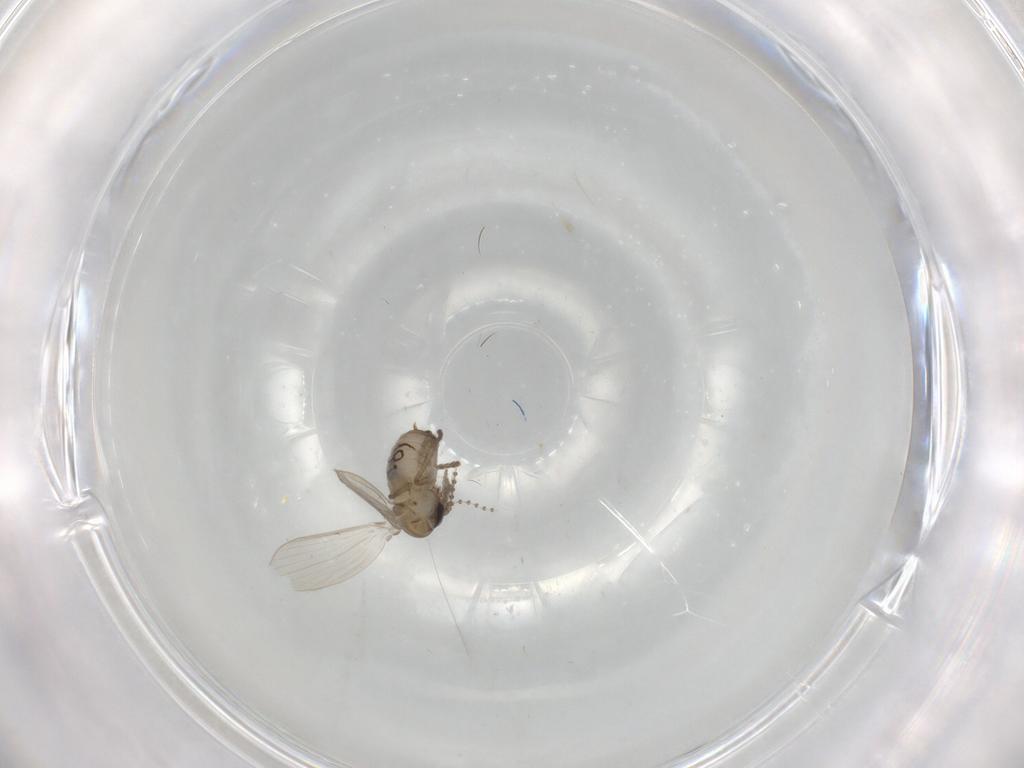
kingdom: Animalia
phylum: Arthropoda
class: Insecta
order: Diptera
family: Psychodidae
